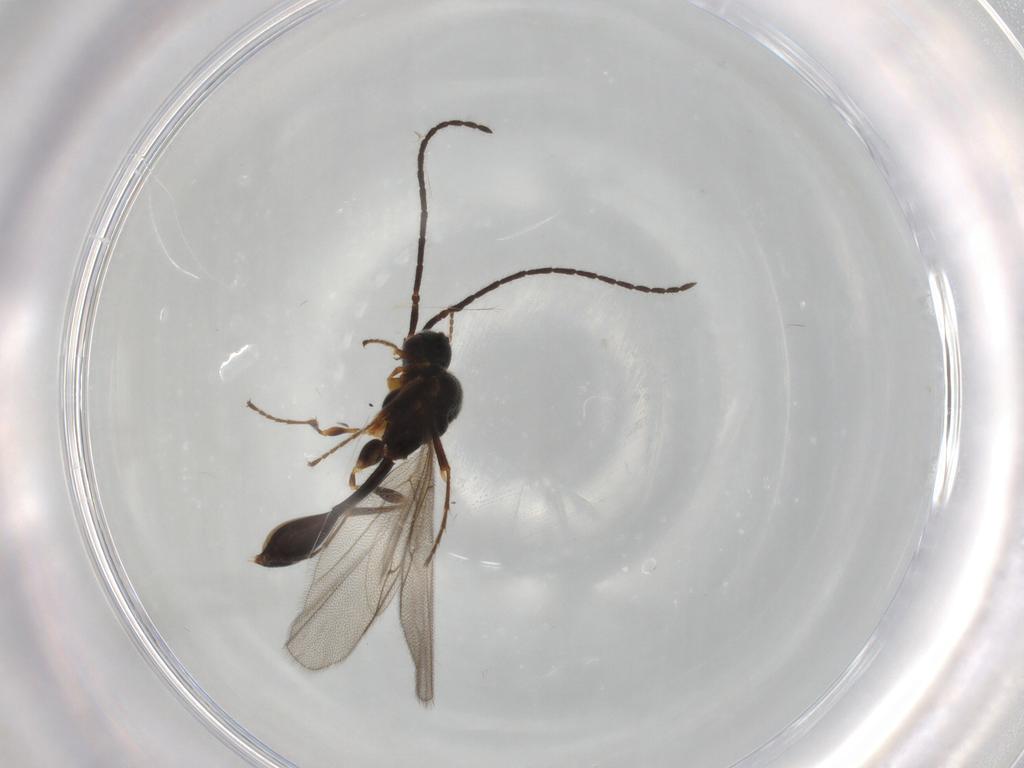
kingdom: Animalia
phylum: Arthropoda
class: Insecta
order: Hymenoptera
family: Diapriidae
